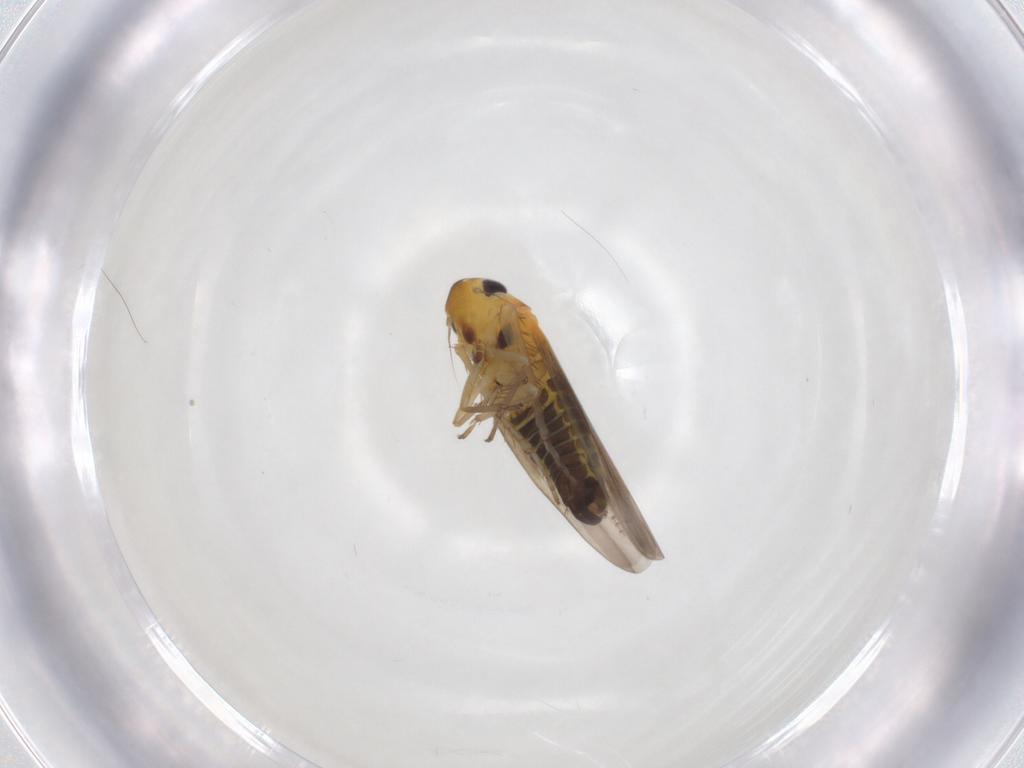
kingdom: Animalia
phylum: Arthropoda
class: Insecta
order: Hemiptera
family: Cicadellidae
